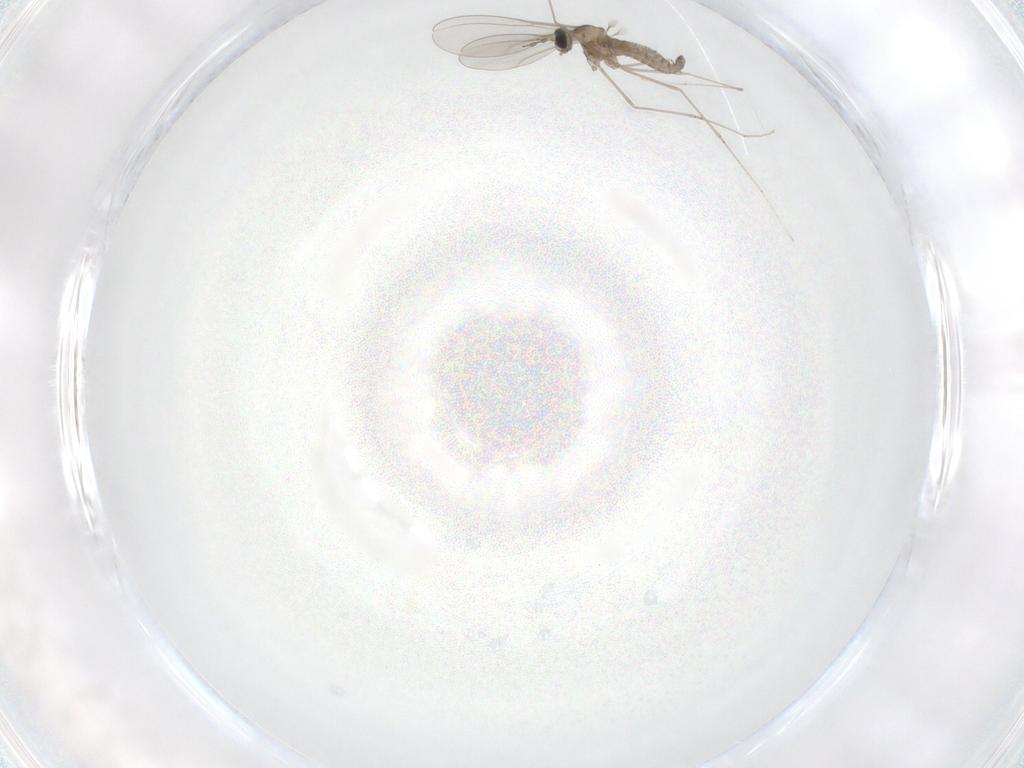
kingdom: Animalia
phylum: Arthropoda
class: Insecta
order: Diptera
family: Cecidomyiidae
